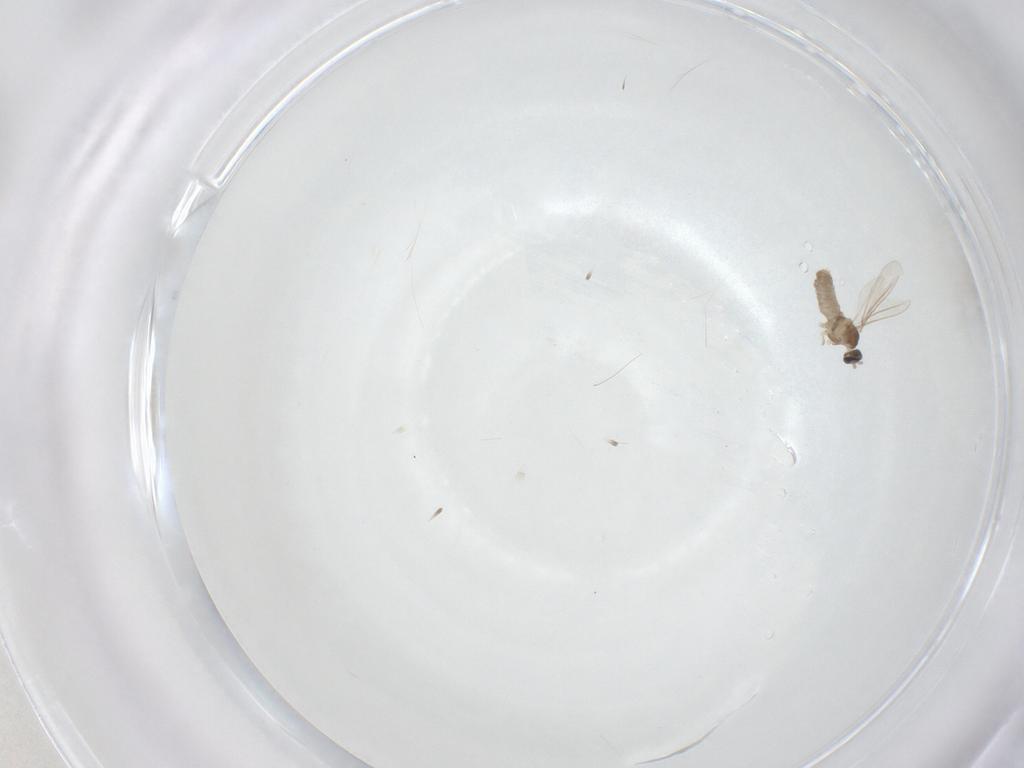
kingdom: Animalia
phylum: Arthropoda
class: Insecta
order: Diptera
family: Cecidomyiidae
